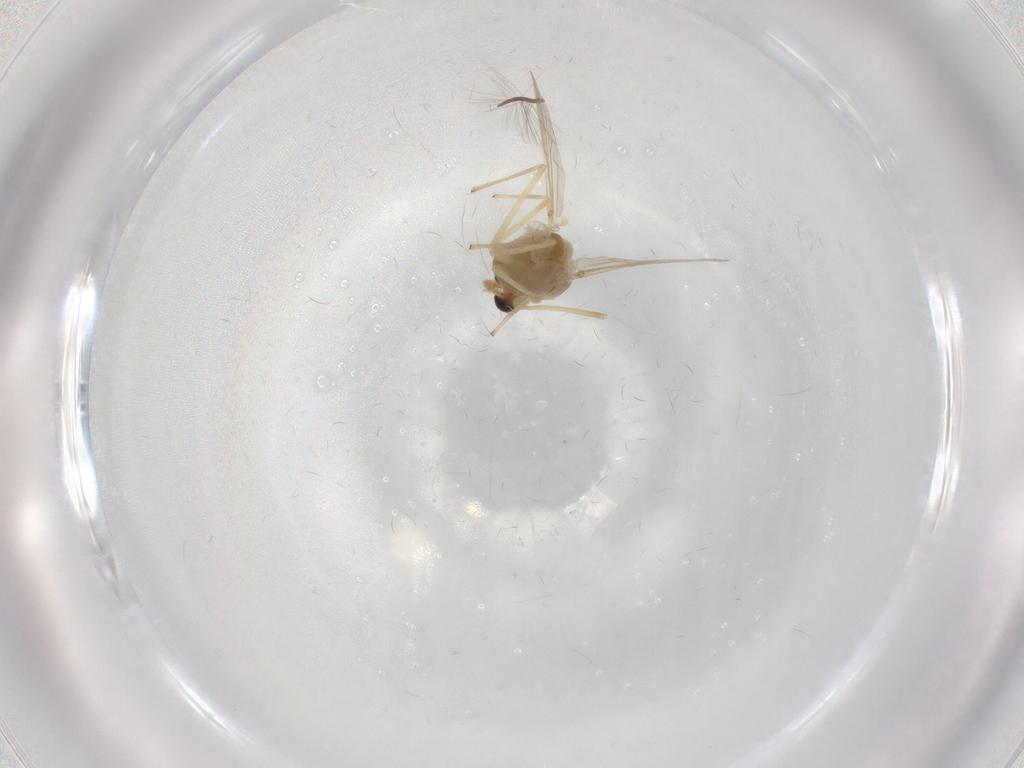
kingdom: Animalia
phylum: Arthropoda
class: Insecta
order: Diptera
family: Chironomidae
